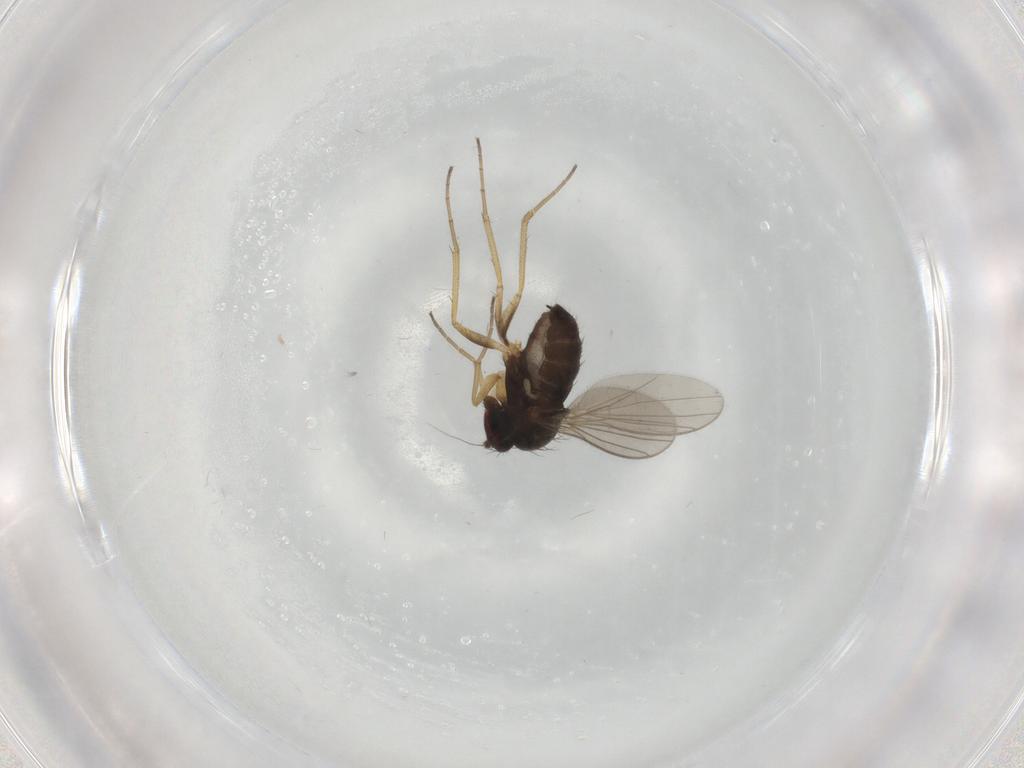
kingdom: Animalia
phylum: Arthropoda
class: Insecta
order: Diptera
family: Dolichopodidae
